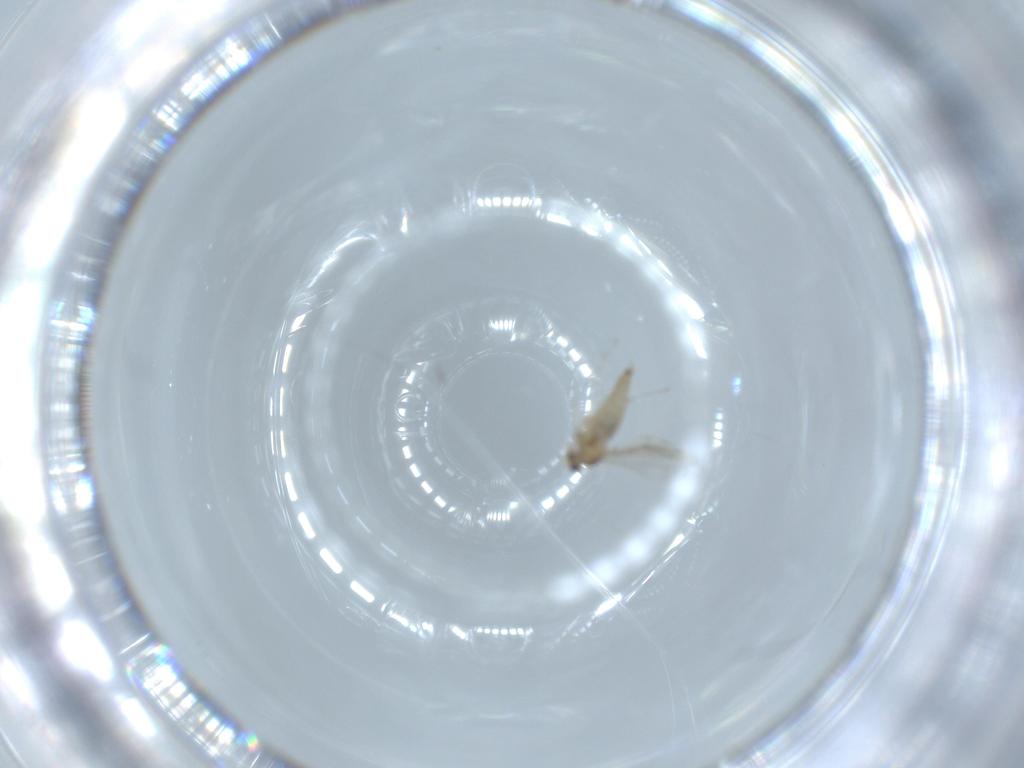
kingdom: Animalia
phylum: Arthropoda
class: Insecta
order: Diptera
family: Cecidomyiidae
